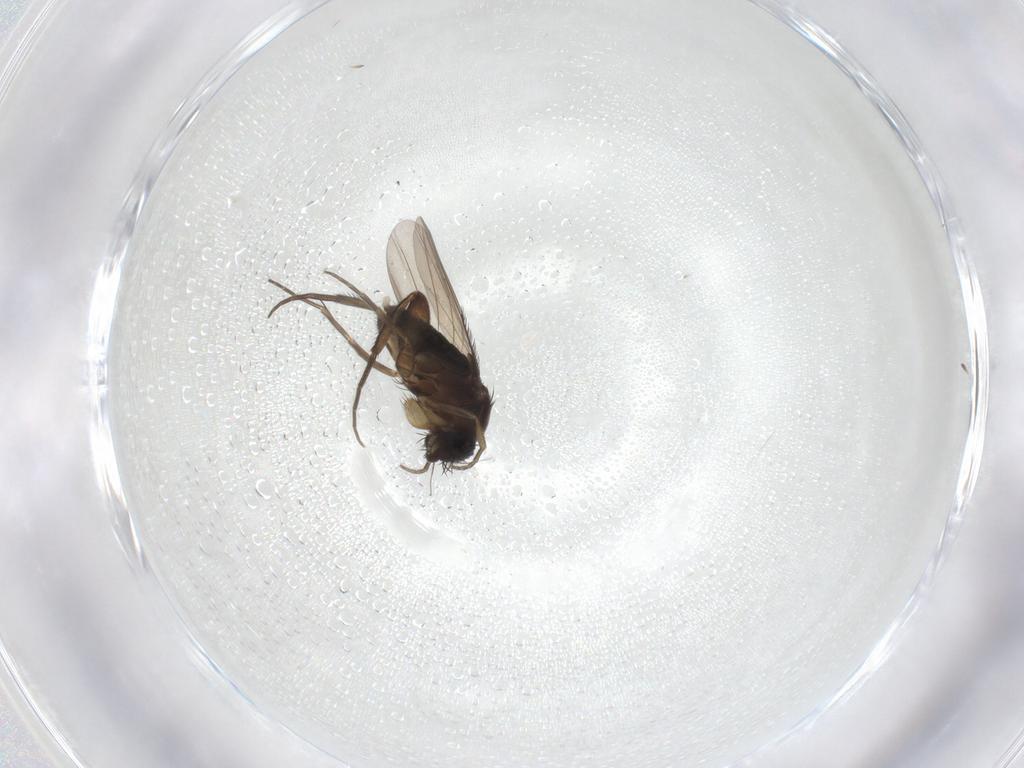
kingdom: Animalia
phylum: Arthropoda
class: Insecta
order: Diptera
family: Phoridae
